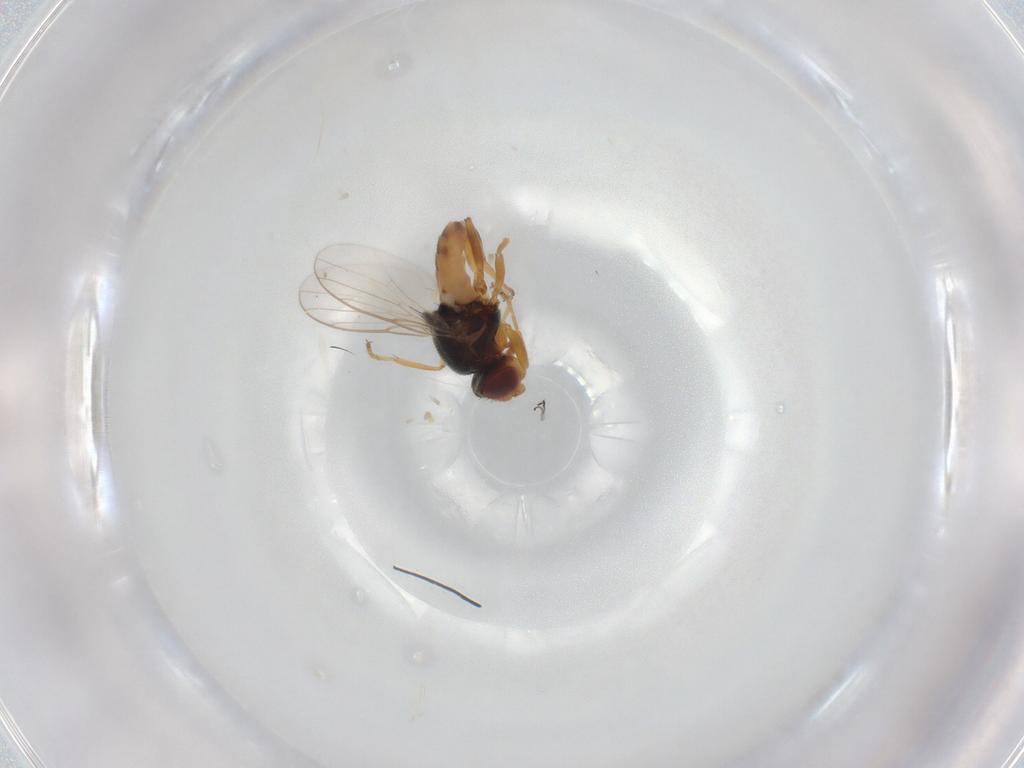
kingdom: Animalia
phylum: Arthropoda
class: Insecta
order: Diptera
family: Chloropidae
